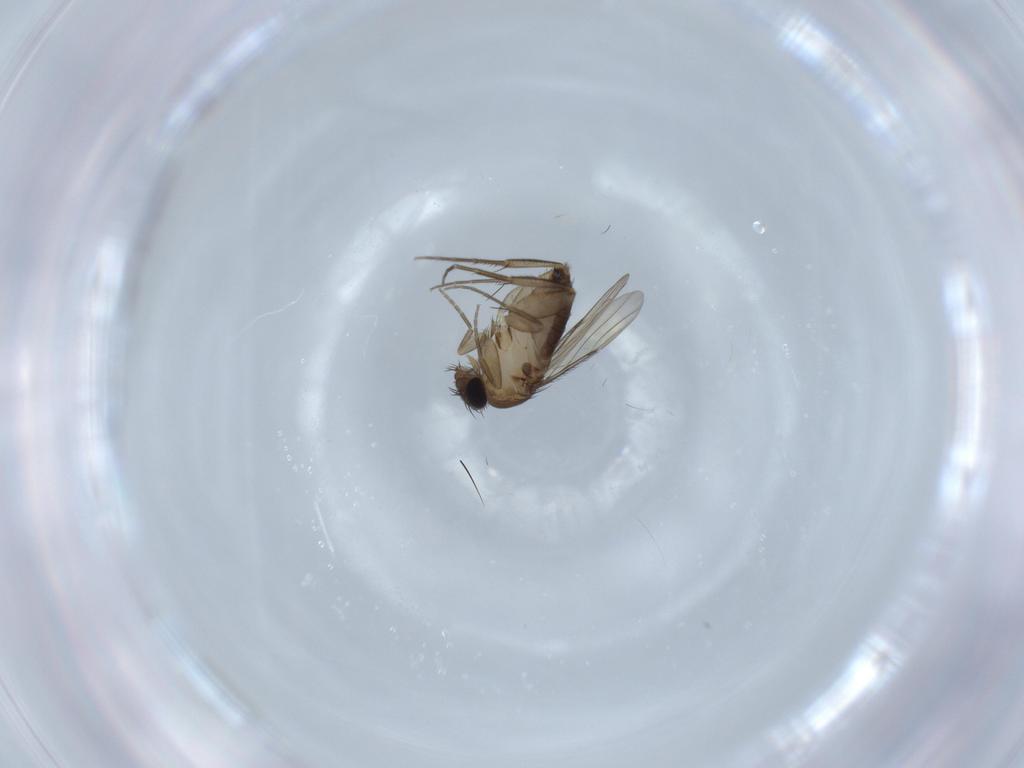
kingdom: Animalia
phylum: Arthropoda
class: Insecta
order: Diptera
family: Phoridae
